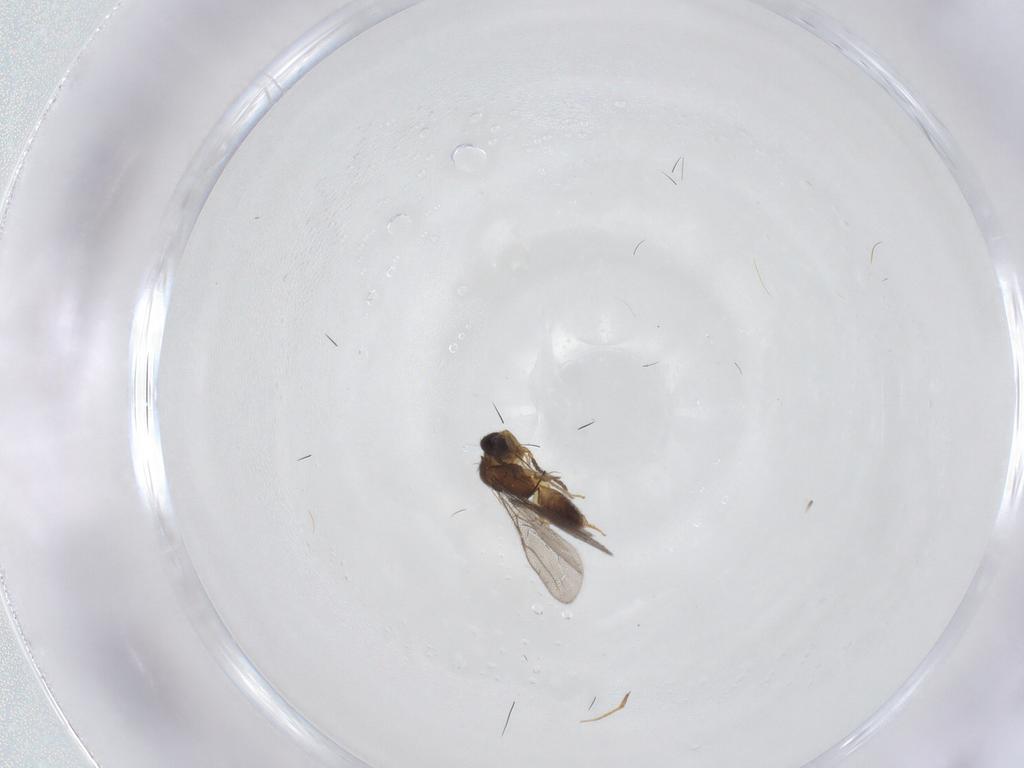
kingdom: Animalia
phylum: Arthropoda
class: Insecta
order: Hymenoptera
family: Bethylidae
